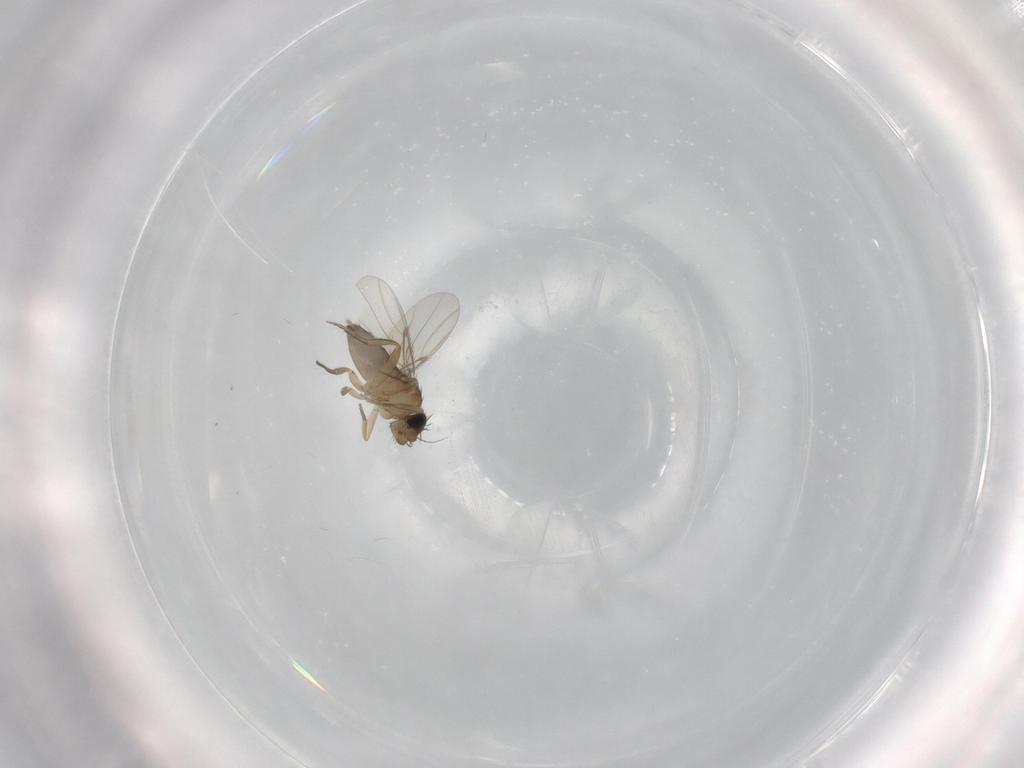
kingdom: Animalia
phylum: Arthropoda
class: Insecta
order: Diptera
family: Phoridae
